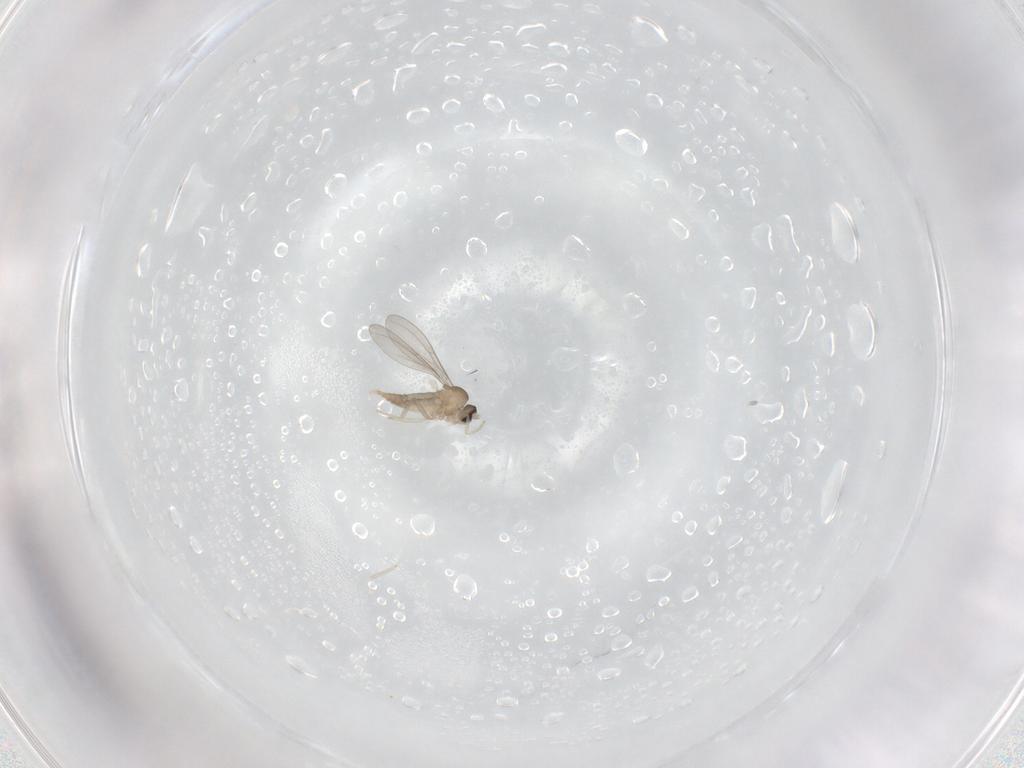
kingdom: Animalia
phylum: Arthropoda
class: Insecta
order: Diptera
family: Cecidomyiidae
